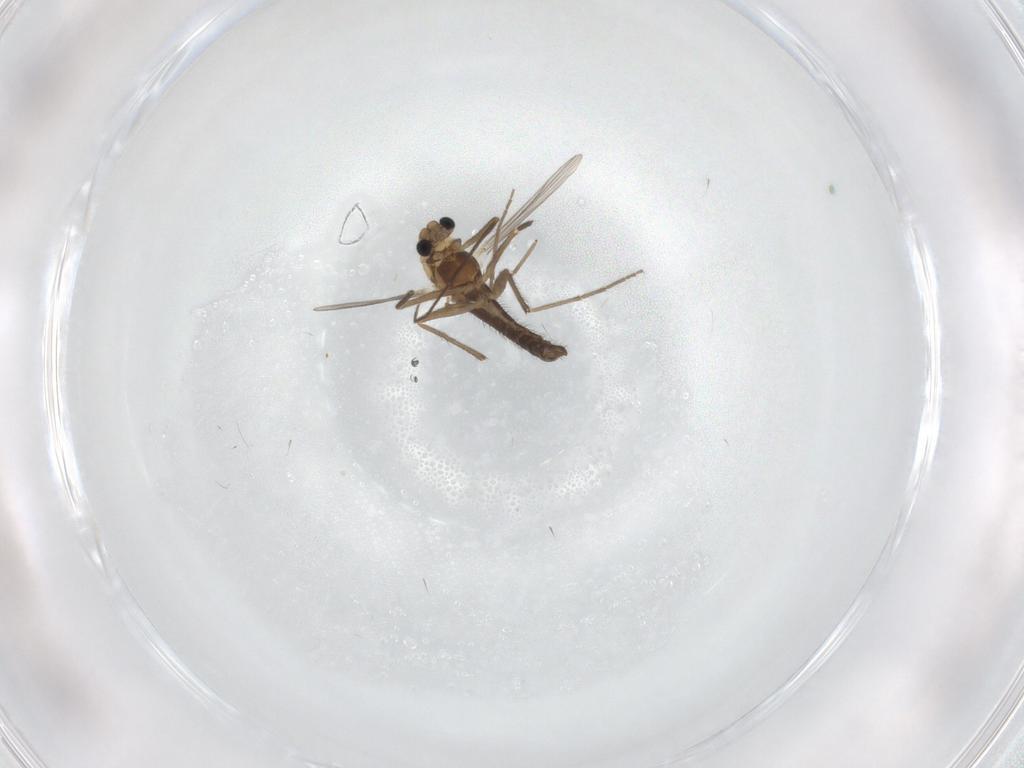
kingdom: Animalia
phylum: Arthropoda
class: Insecta
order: Diptera
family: Chironomidae
